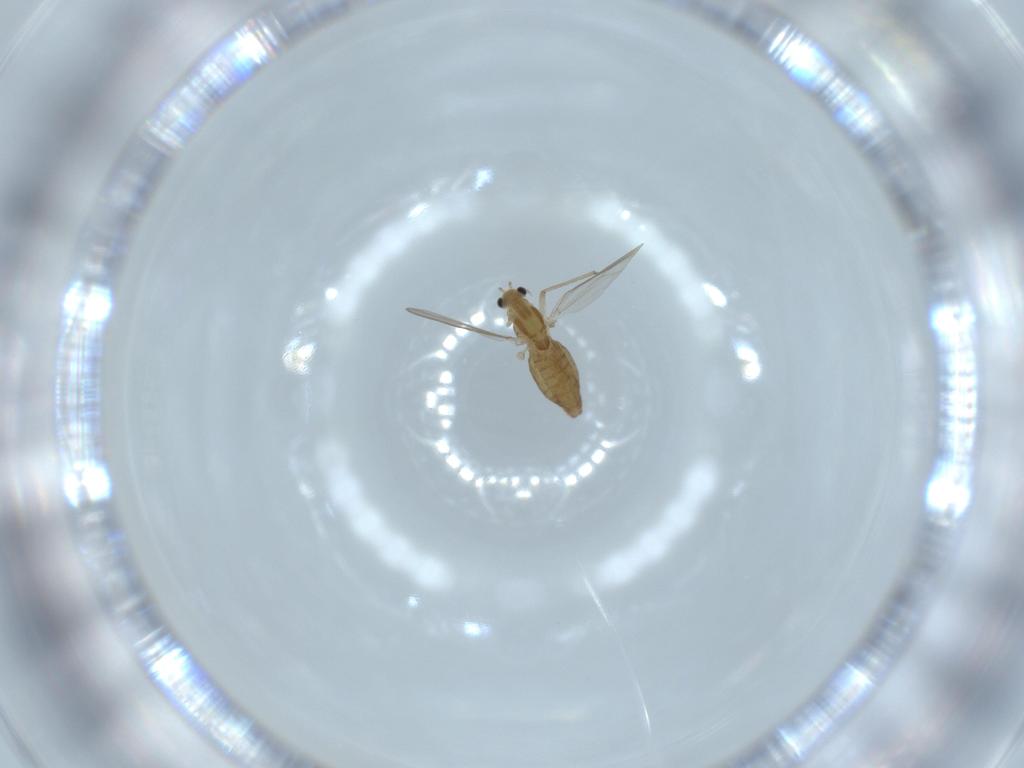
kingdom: Animalia
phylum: Arthropoda
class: Insecta
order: Diptera
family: Chironomidae
